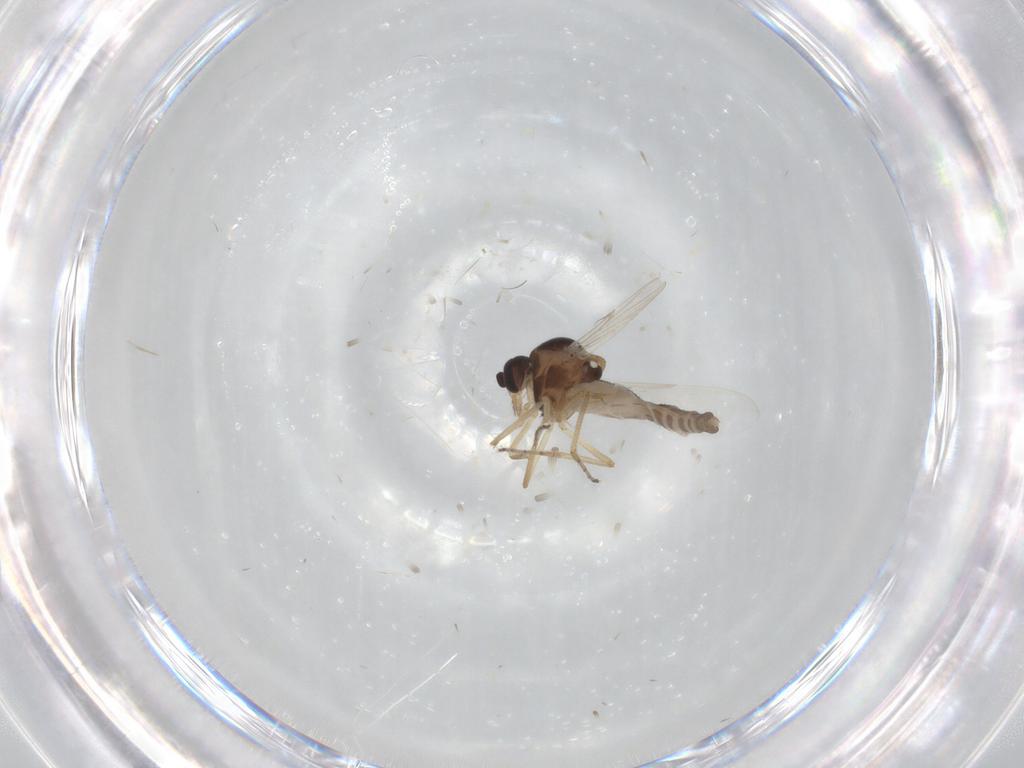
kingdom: Animalia
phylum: Arthropoda
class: Insecta
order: Diptera
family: Ceratopogonidae
